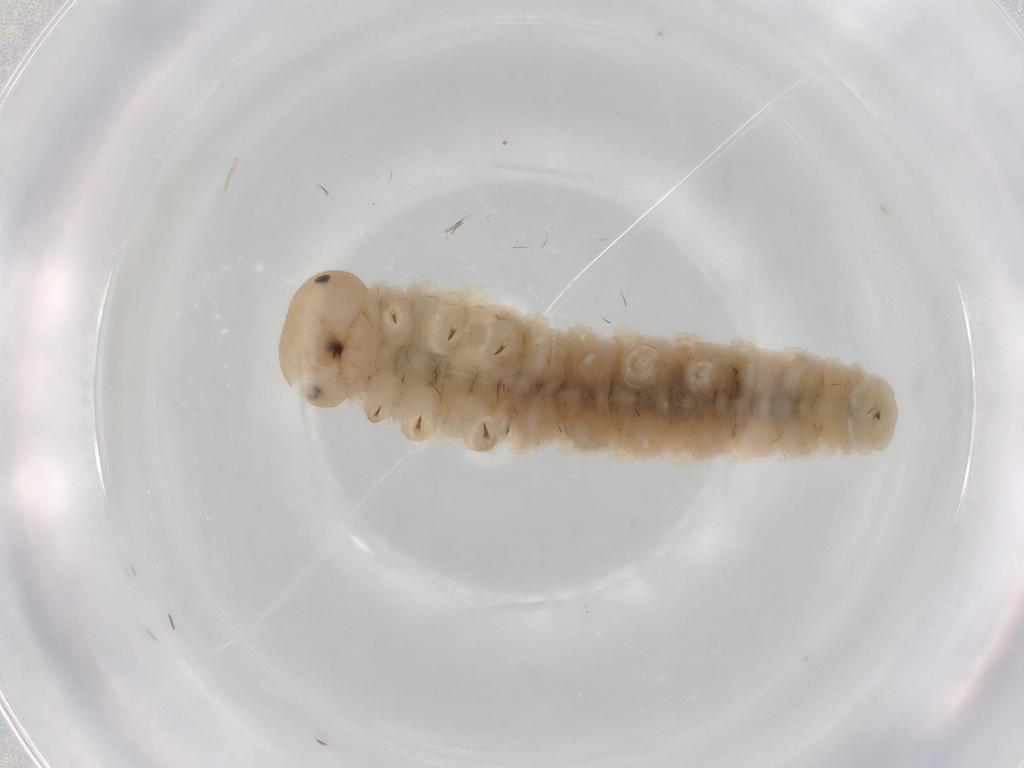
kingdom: Animalia
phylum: Arthropoda
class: Insecta
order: Hymenoptera
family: Tenthredinidae
